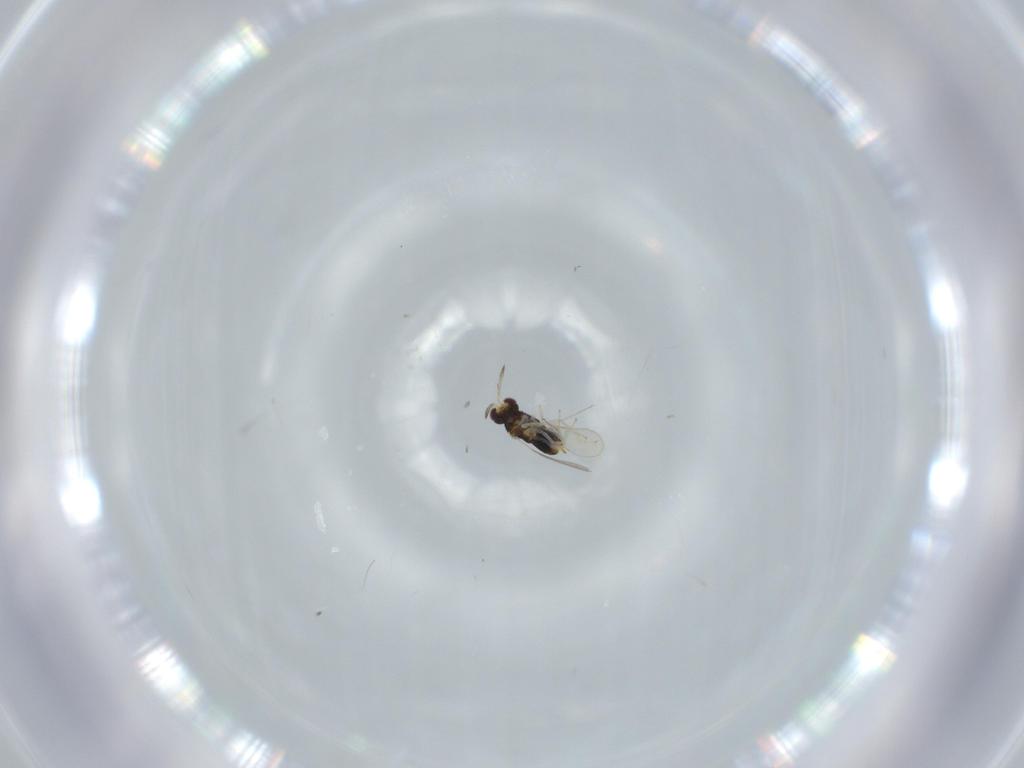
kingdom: Animalia
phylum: Arthropoda
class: Insecta
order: Hymenoptera
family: Aphelinidae
